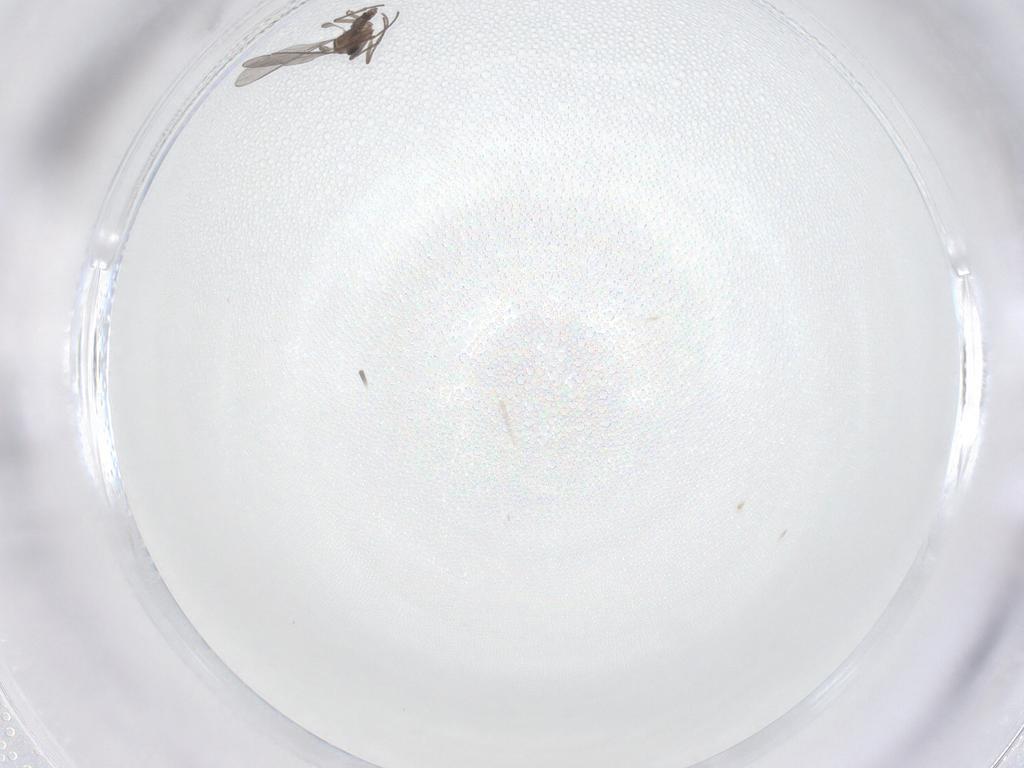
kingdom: Animalia
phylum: Arthropoda
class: Insecta
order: Diptera
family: Sciaridae
